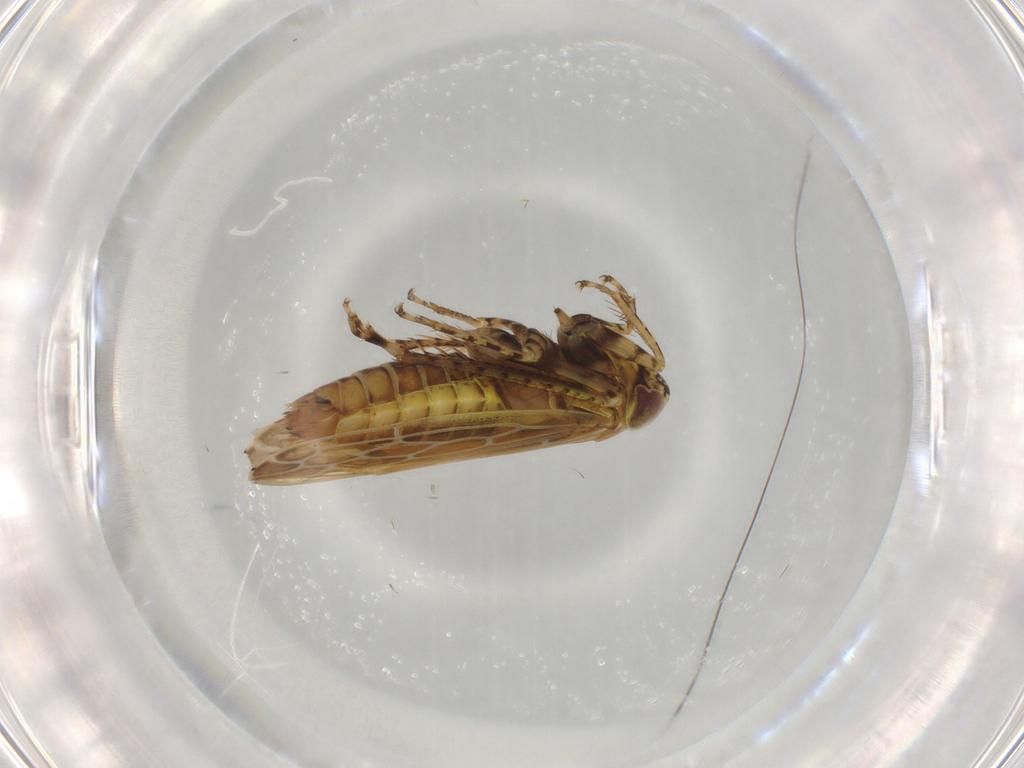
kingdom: Animalia
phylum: Arthropoda
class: Insecta
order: Hemiptera
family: Cicadellidae
